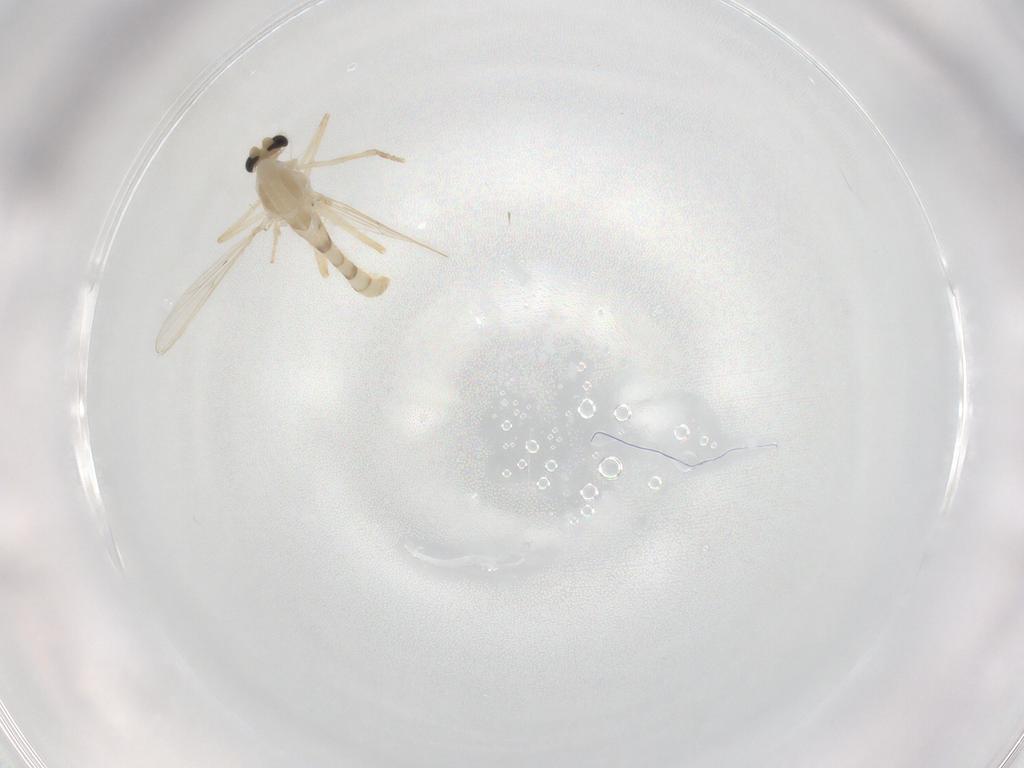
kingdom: Animalia
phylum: Arthropoda
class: Insecta
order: Diptera
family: Chironomidae
